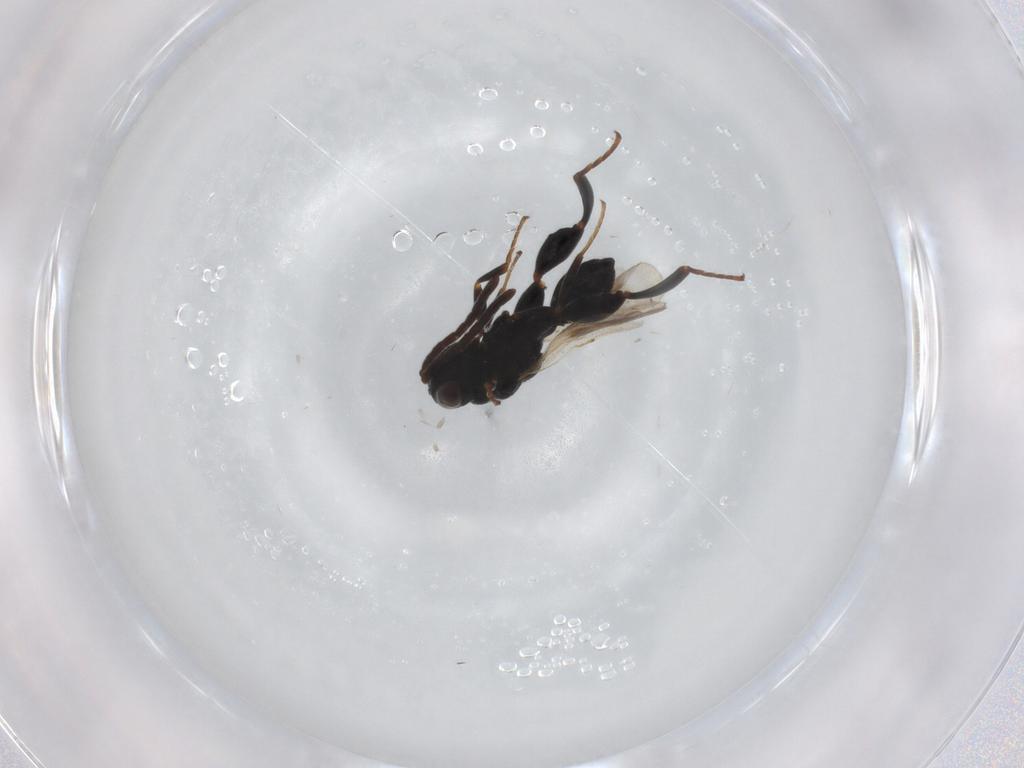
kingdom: Animalia
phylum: Arthropoda
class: Insecta
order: Hymenoptera
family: Chalcididae
